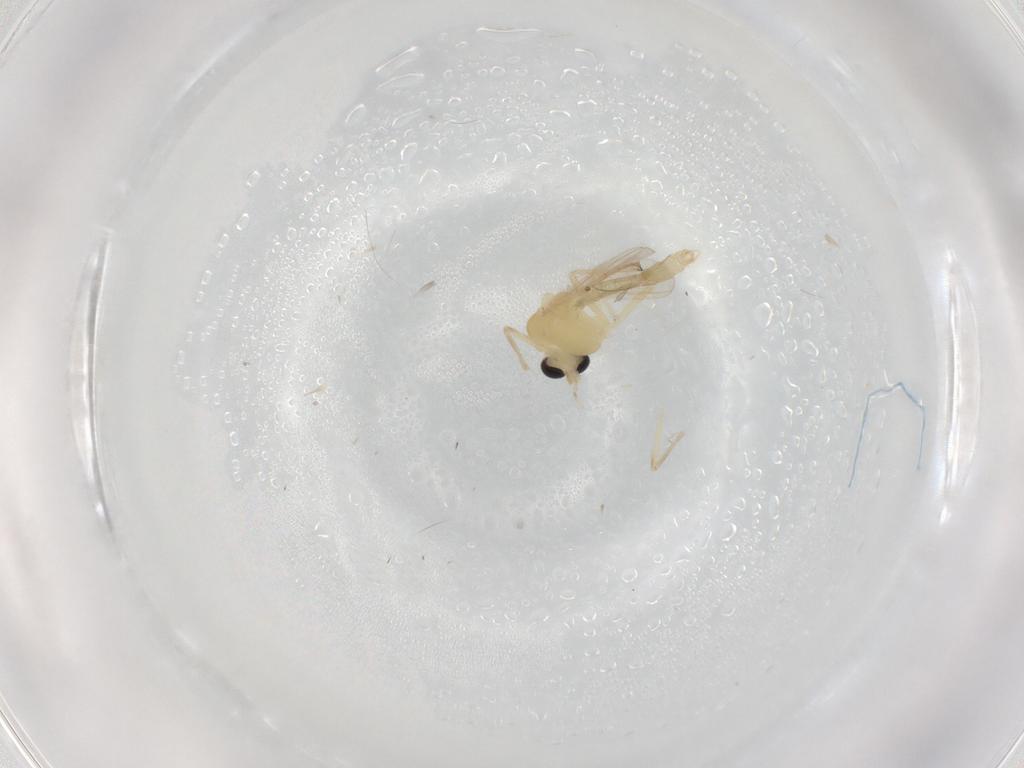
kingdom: Animalia
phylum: Arthropoda
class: Insecta
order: Diptera
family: Chironomidae
